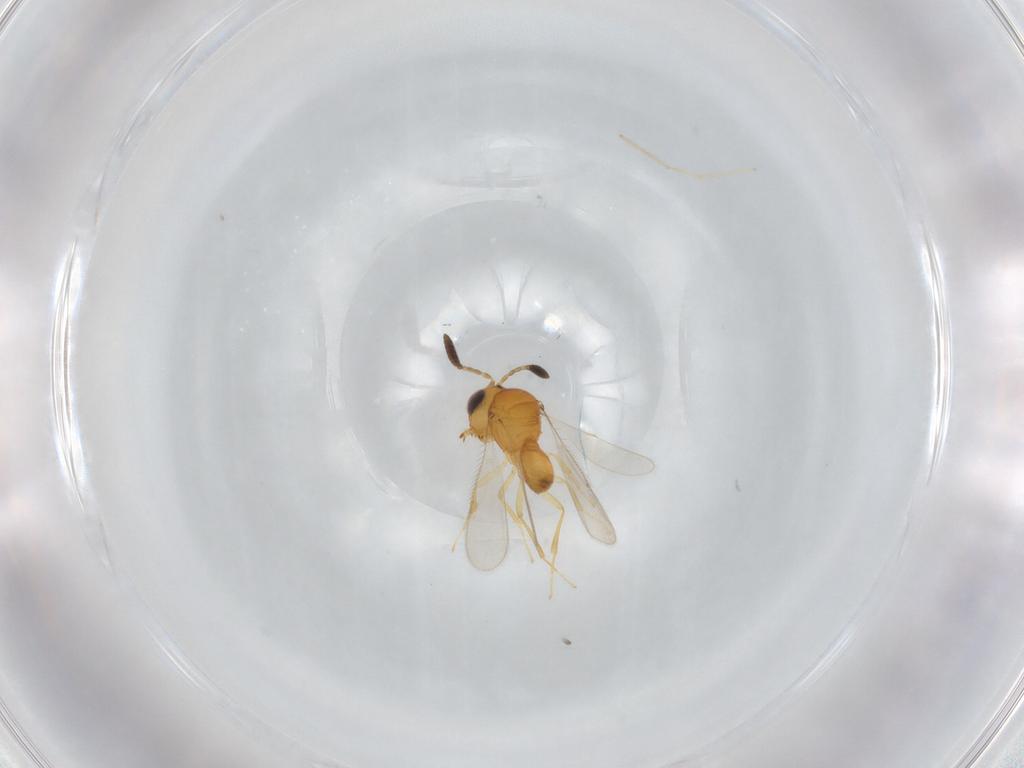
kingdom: Animalia
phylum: Arthropoda
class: Insecta
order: Hymenoptera
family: Scelionidae
